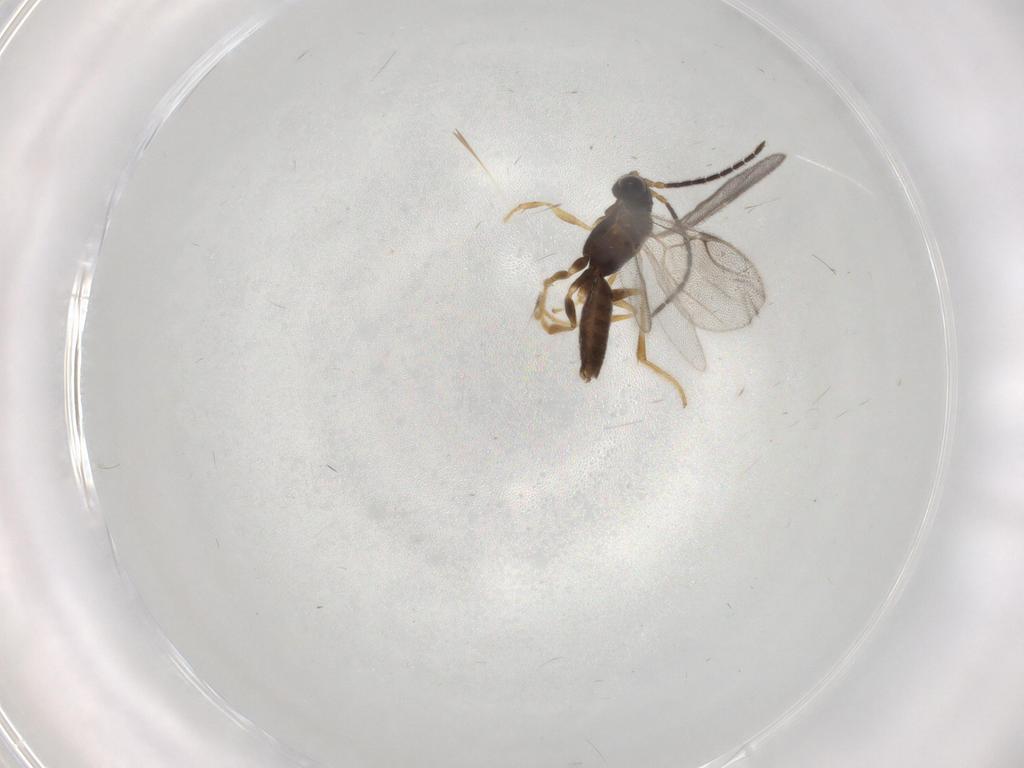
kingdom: Animalia
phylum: Arthropoda
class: Insecta
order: Hymenoptera
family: Dryinidae
